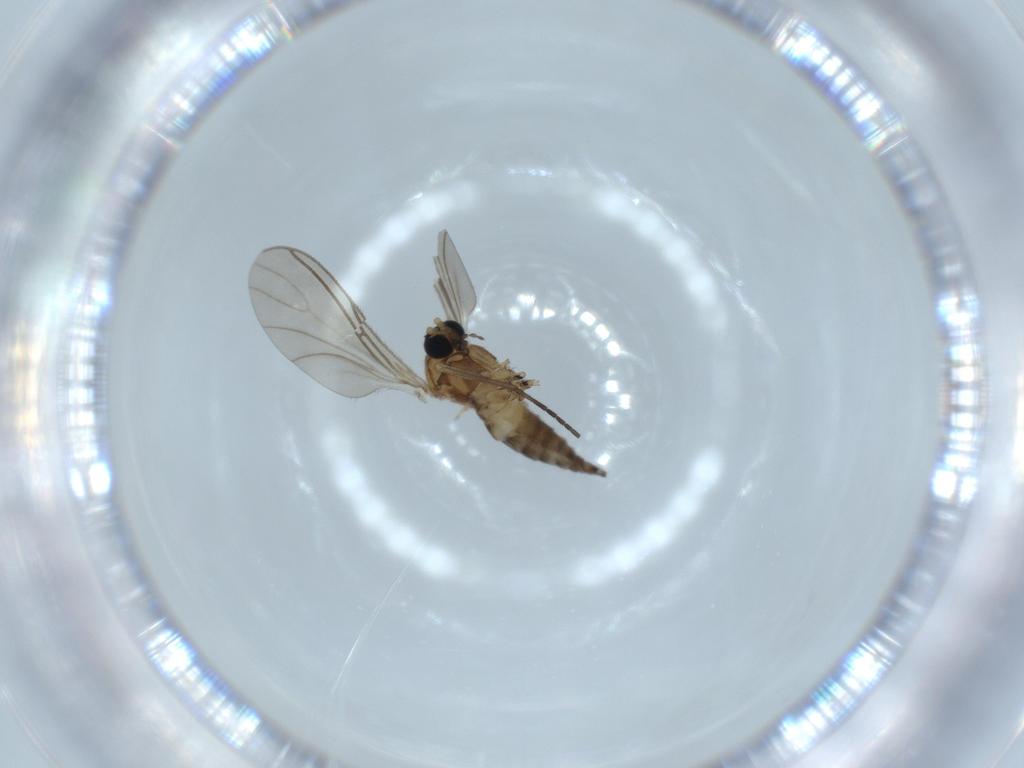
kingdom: Animalia
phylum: Arthropoda
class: Insecta
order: Diptera
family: Sciaridae
